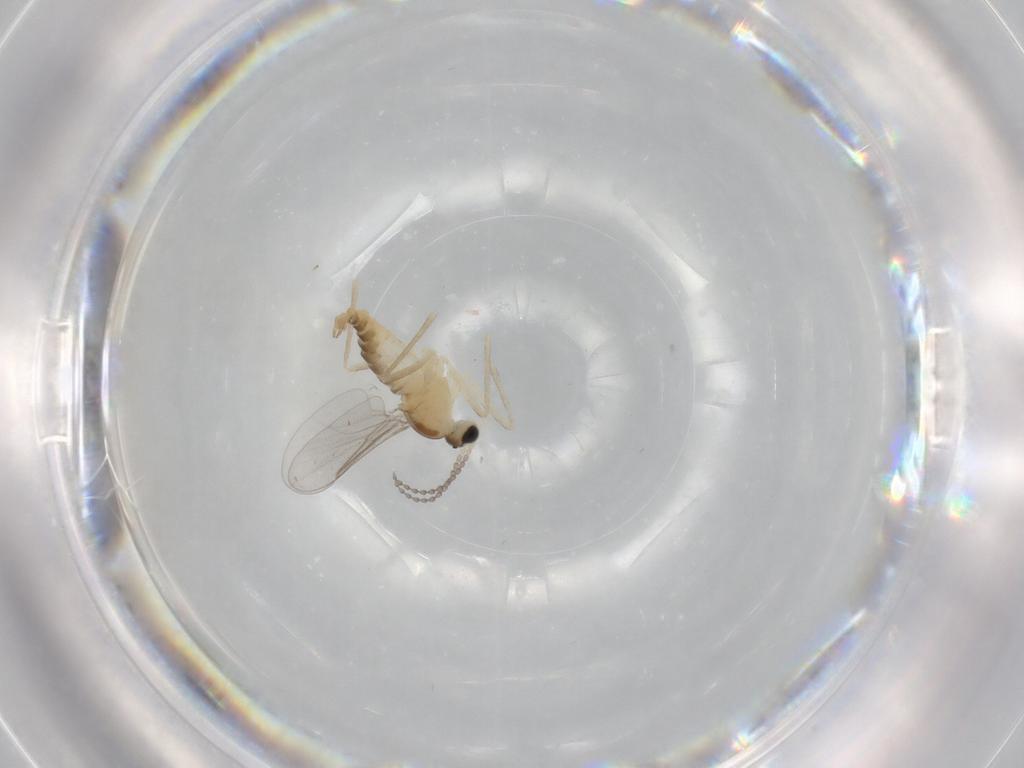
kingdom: Animalia
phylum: Arthropoda
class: Insecta
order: Diptera
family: Cecidomyiidae
